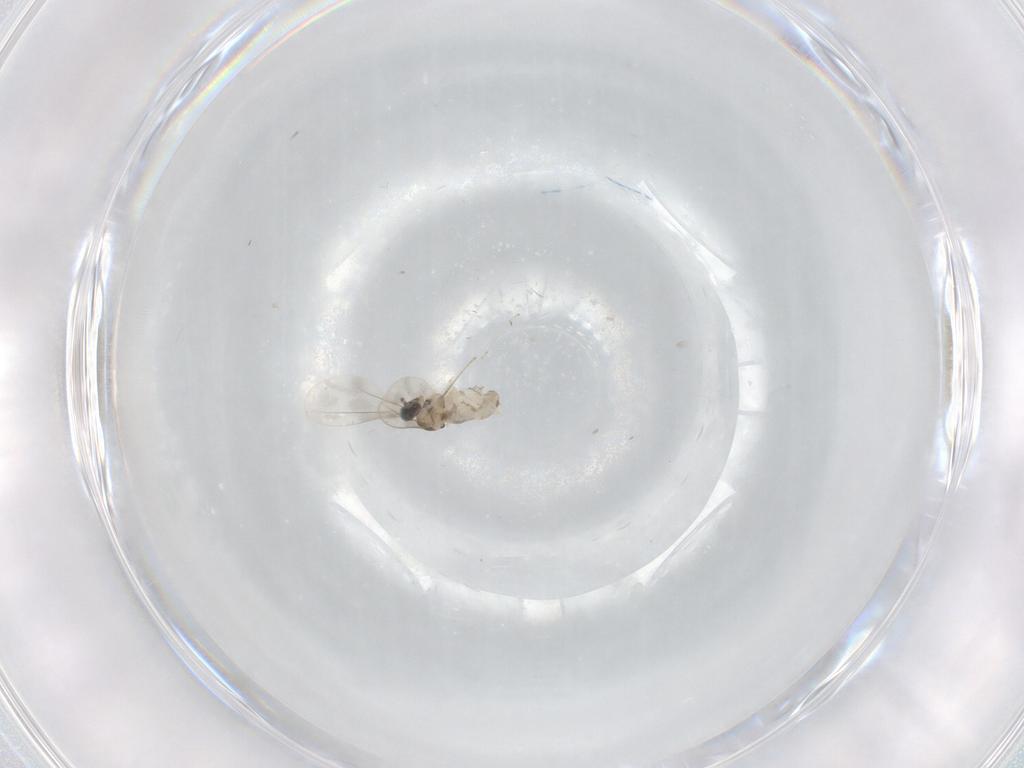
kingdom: Animalia
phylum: Arthropoda
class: Insecta
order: Diptera
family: Cecidomyiidae
